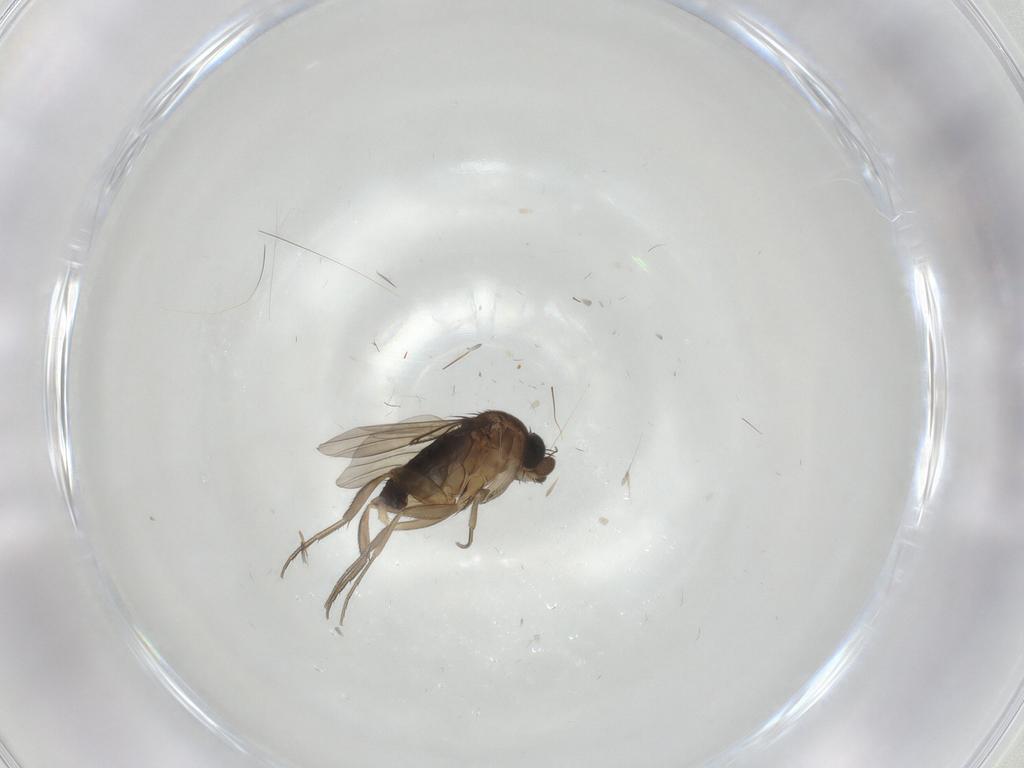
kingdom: Animalia
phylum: Arthropoda
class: Insecta
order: Diptera
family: Phoridae
